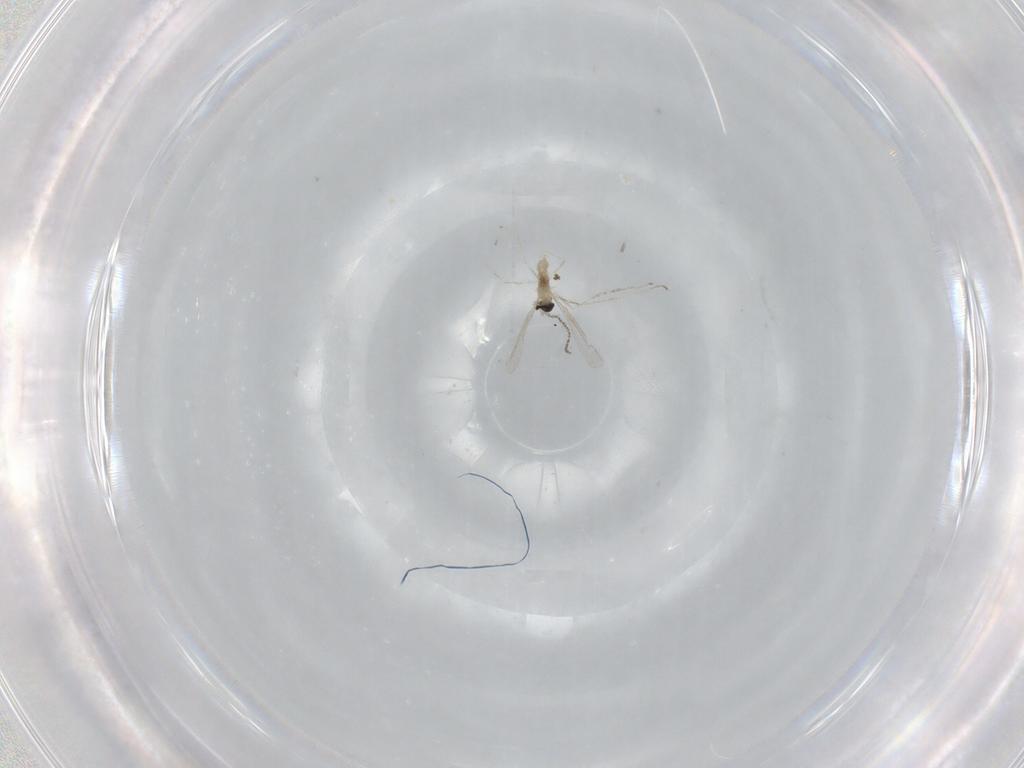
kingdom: Animalia
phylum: Arthropoda
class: Insecta
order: Diptera
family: Cecidomyiidae
